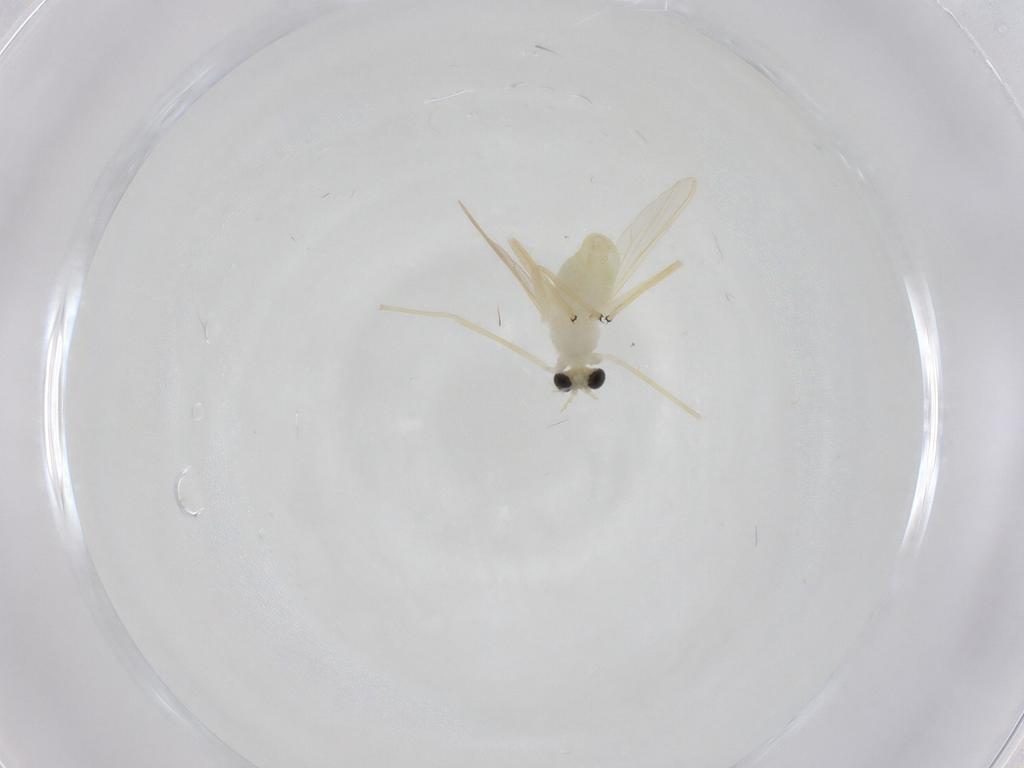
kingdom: Animalia
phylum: Arthropoda
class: Insecta
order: Diptera
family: Chironomidae
